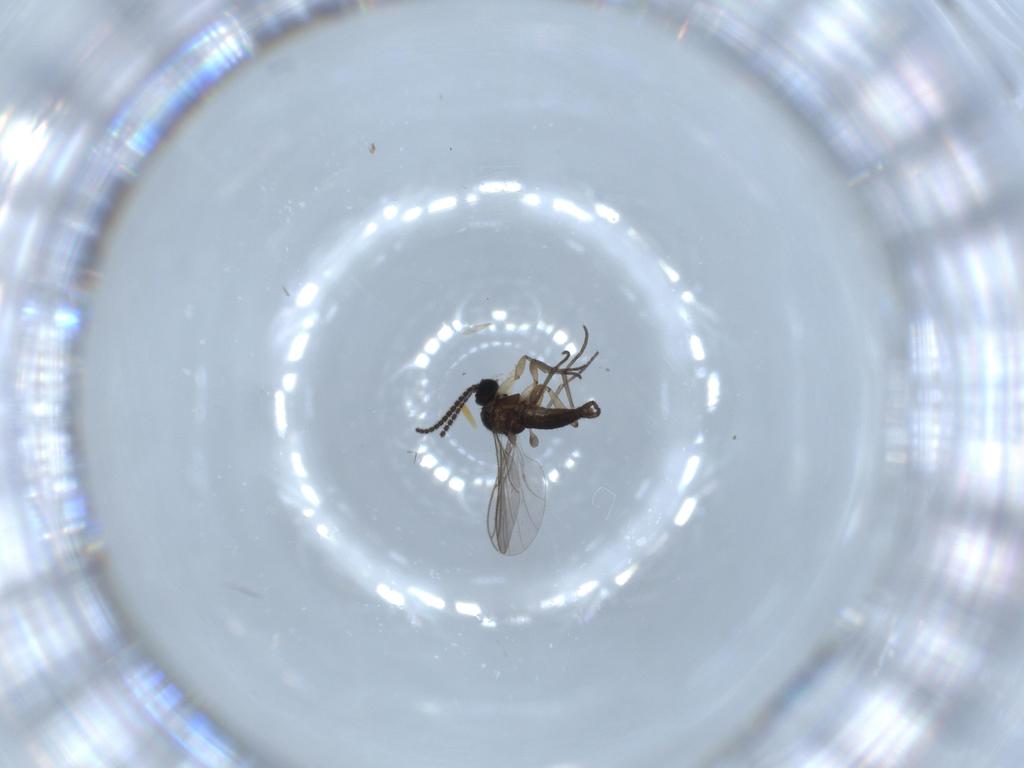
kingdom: Animalia
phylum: Arthropoda
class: Insecta
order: Diptera
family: Sciaridae
